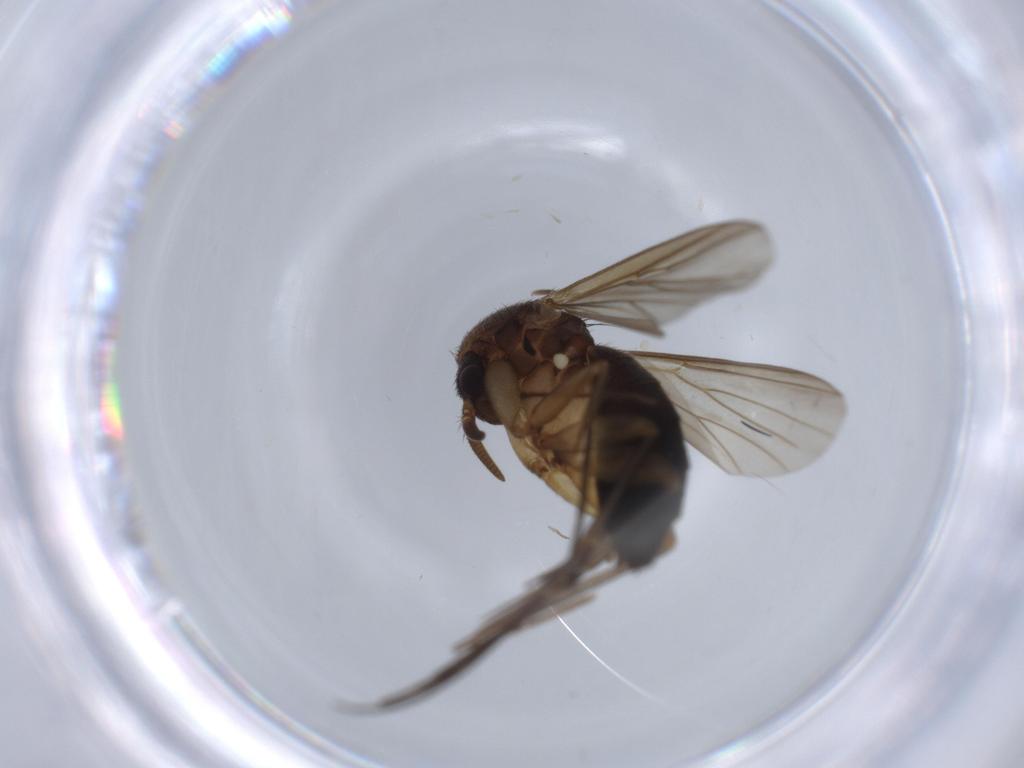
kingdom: Animalia
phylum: Arthropoda
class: Insecta
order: Diptera
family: Mycetophilidae
